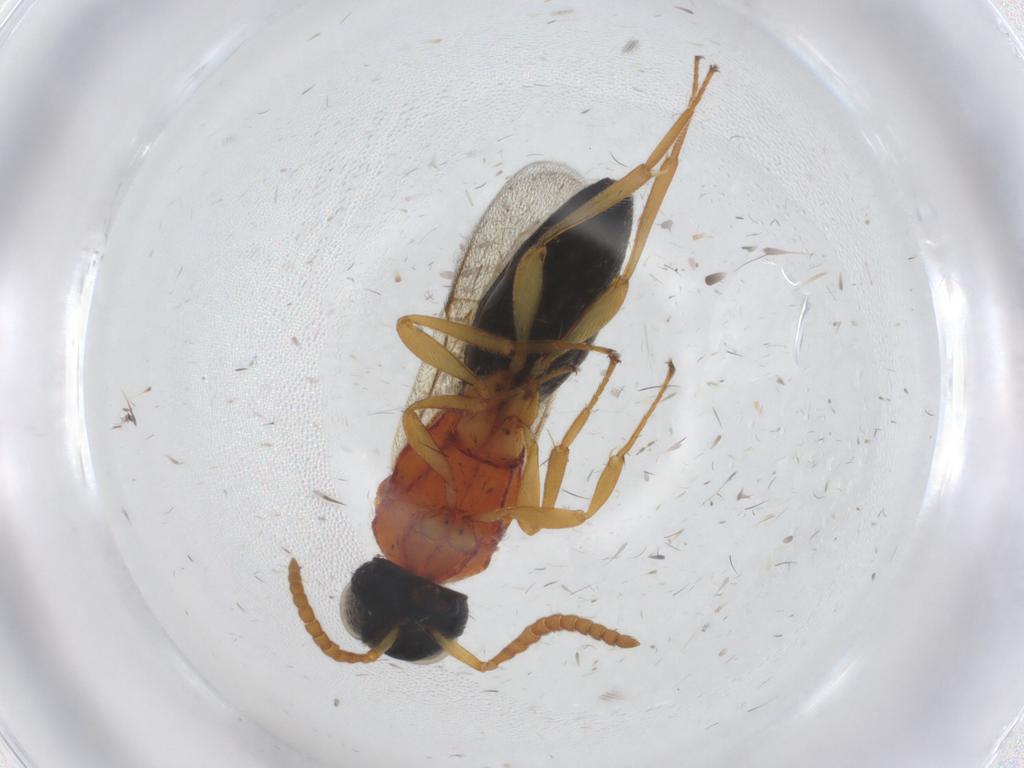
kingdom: Animalia
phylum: Arthropoda
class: Insecta
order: Hymenoptera
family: Scelionidae
